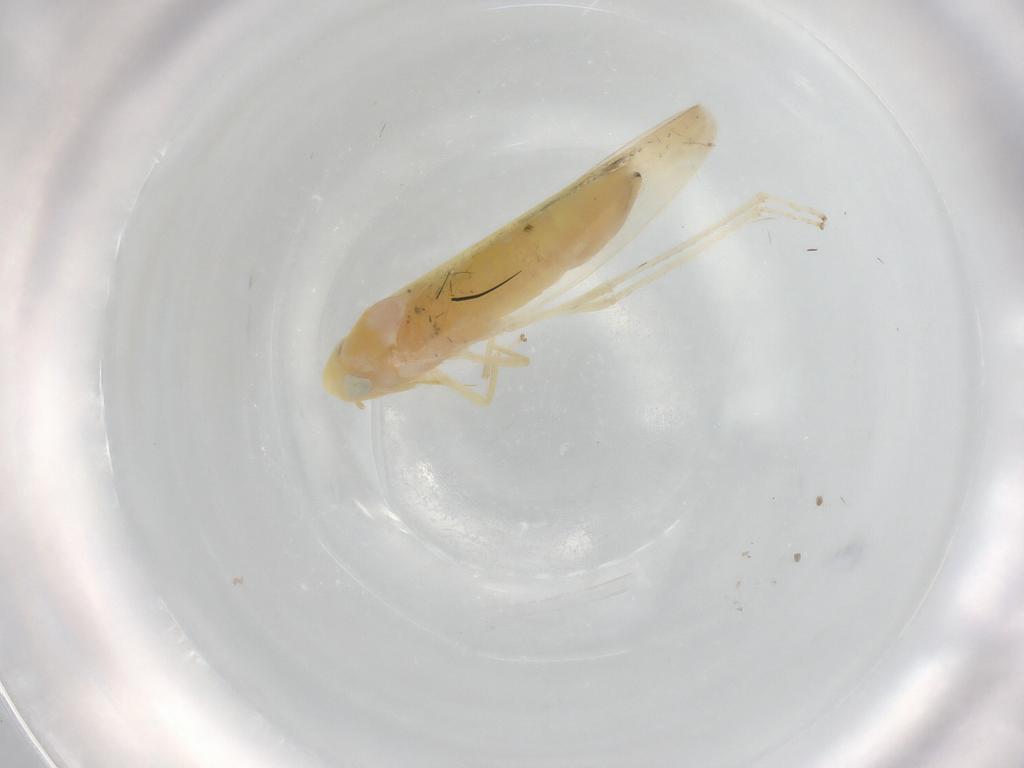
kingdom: Animalia
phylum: Arthropoda
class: Insecta
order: Hemiptera
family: Cicadellidae
